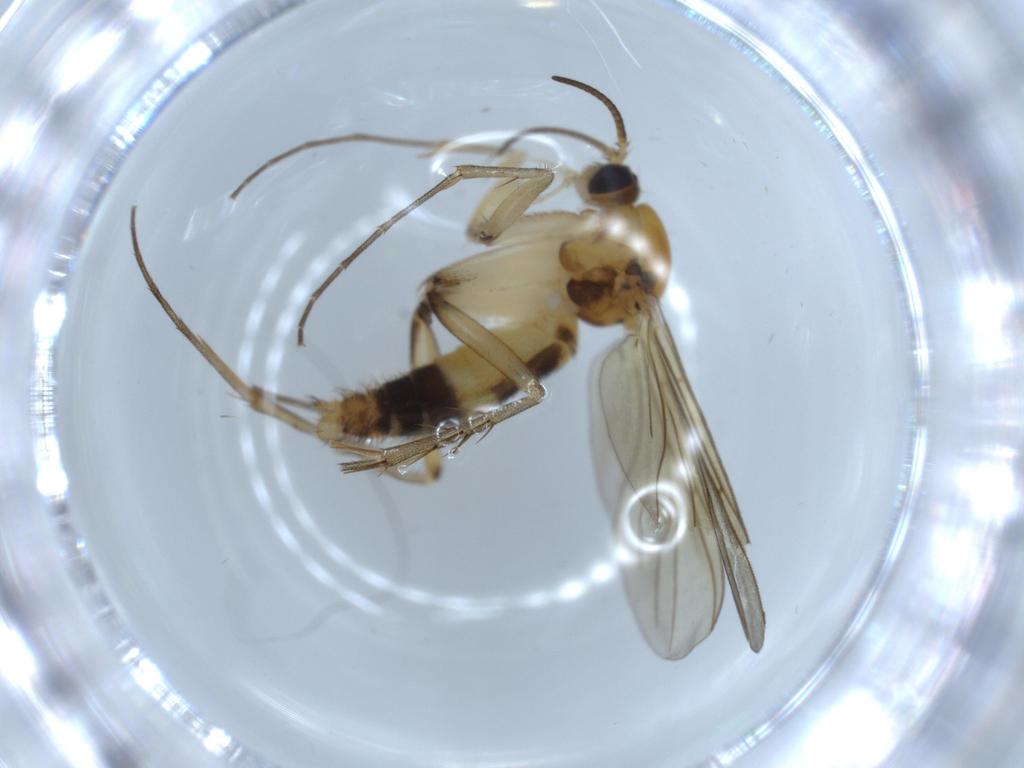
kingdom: Animalia
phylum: Arthropoda
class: Insecta
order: Diptera
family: Mycetophilidae
